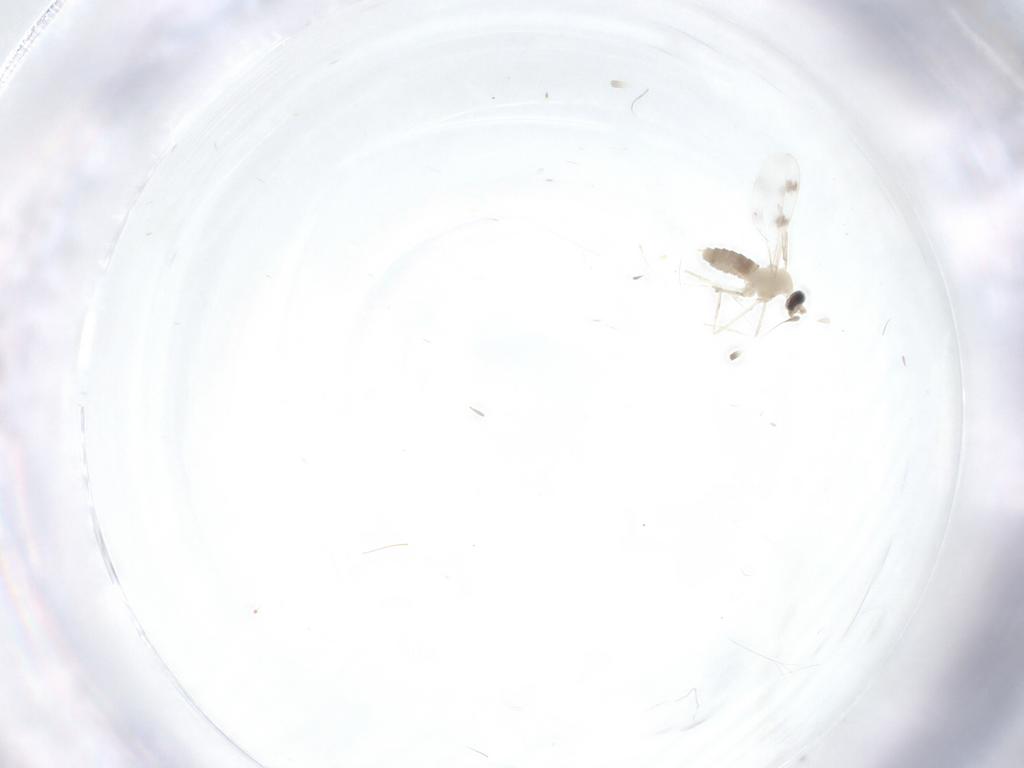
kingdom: Animalia
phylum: Arthropoda
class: Insecta
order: Diptera
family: Cecidomyiidae
